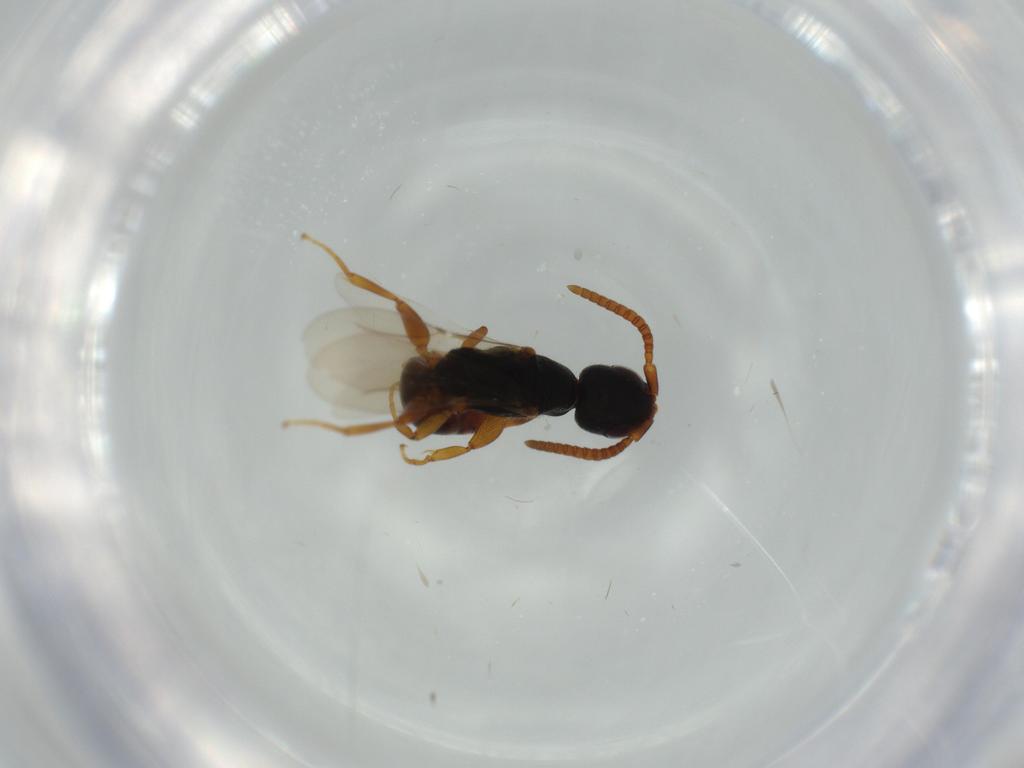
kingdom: Animalia
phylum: Arthropoda
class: Insecta
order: Hymenoptera
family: Bethylidae
